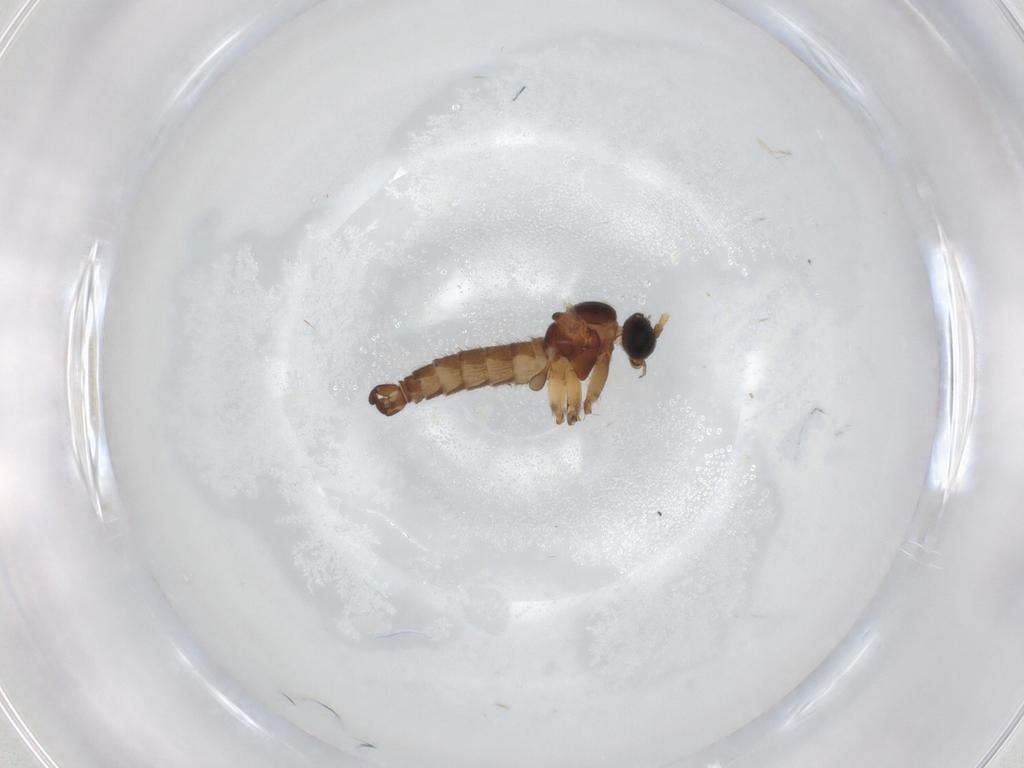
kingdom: Animalia
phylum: Arthropoda
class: Insecta
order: Diptera
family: Sciaridae
